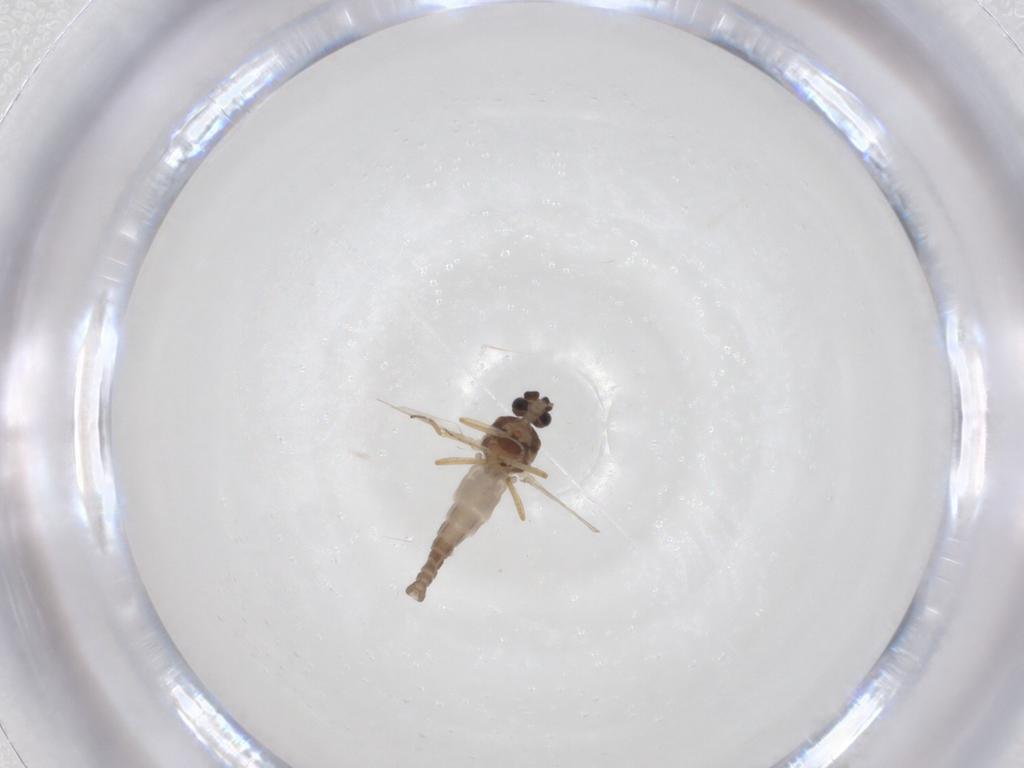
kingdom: Animalia
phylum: Arthropoda
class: Insecta
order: Diptera
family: Ceratopogonidae
